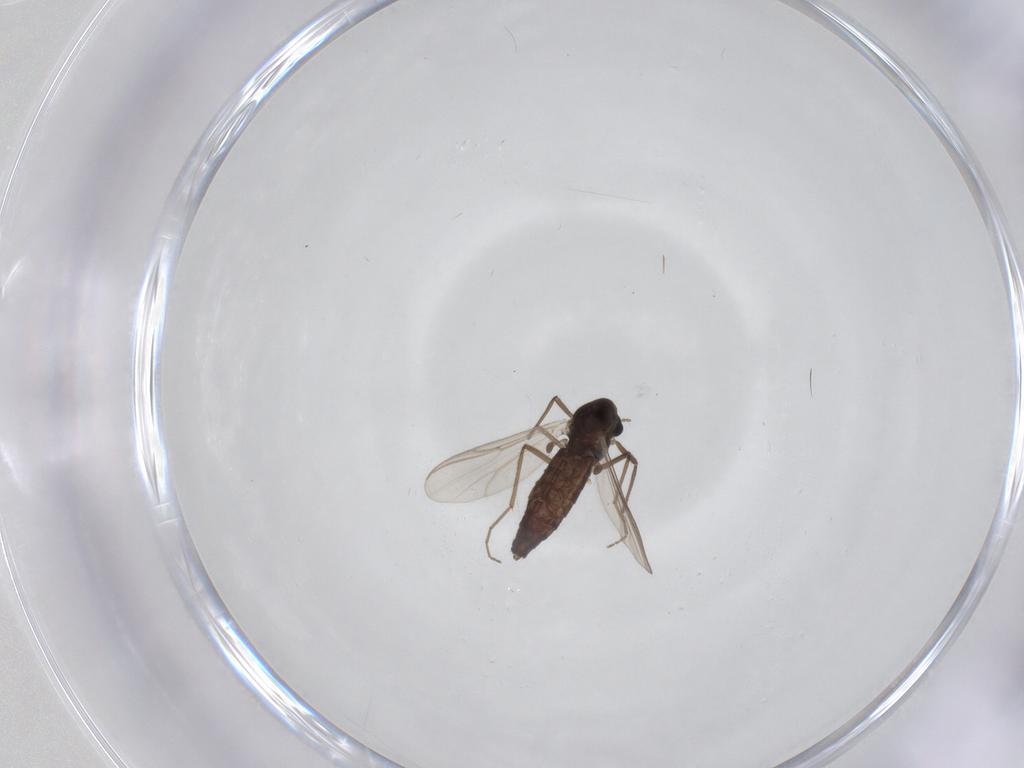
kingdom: Animalia
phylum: Arthropoda
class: Insecta
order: Diptera
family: Chironomidae
